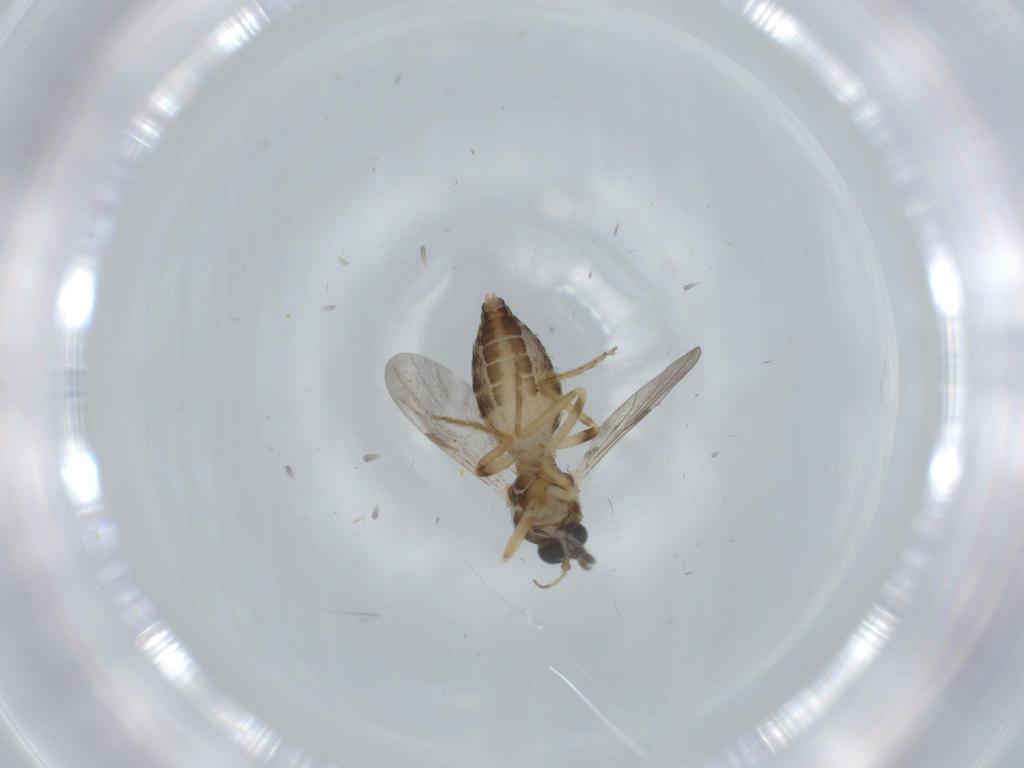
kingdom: Animalia
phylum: Arthropoda
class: Insecta
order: Diptera
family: Ceratopogonidae
